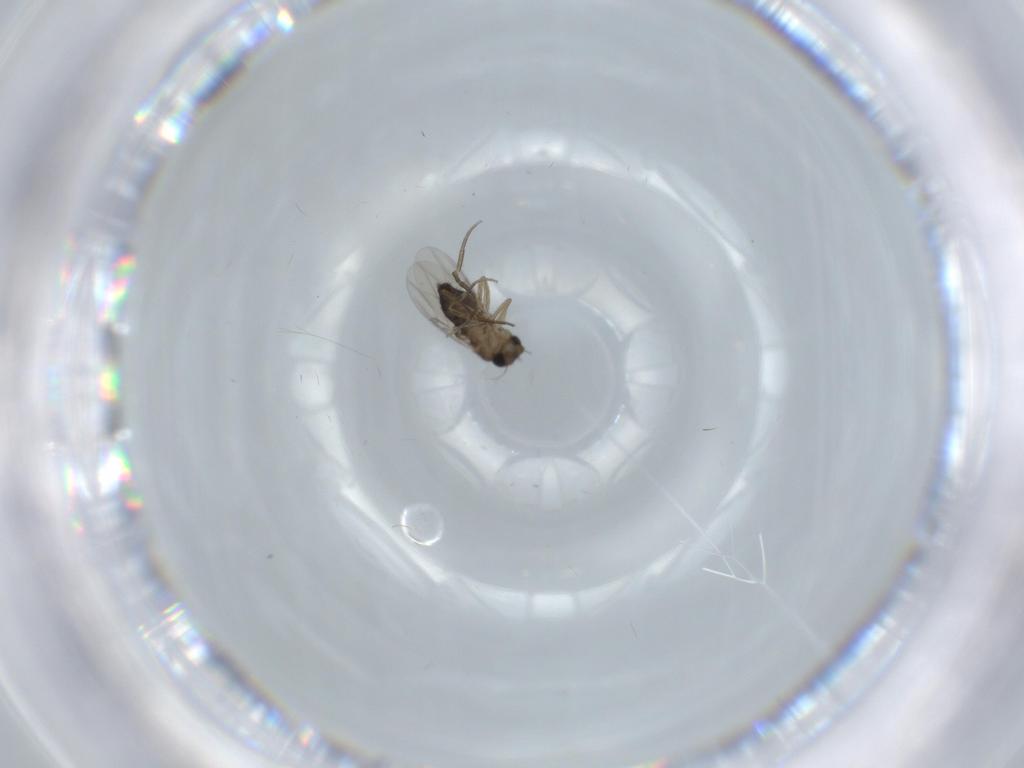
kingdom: Animalia
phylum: Arthropoda
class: Insecta
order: Diptera
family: Phoridae
